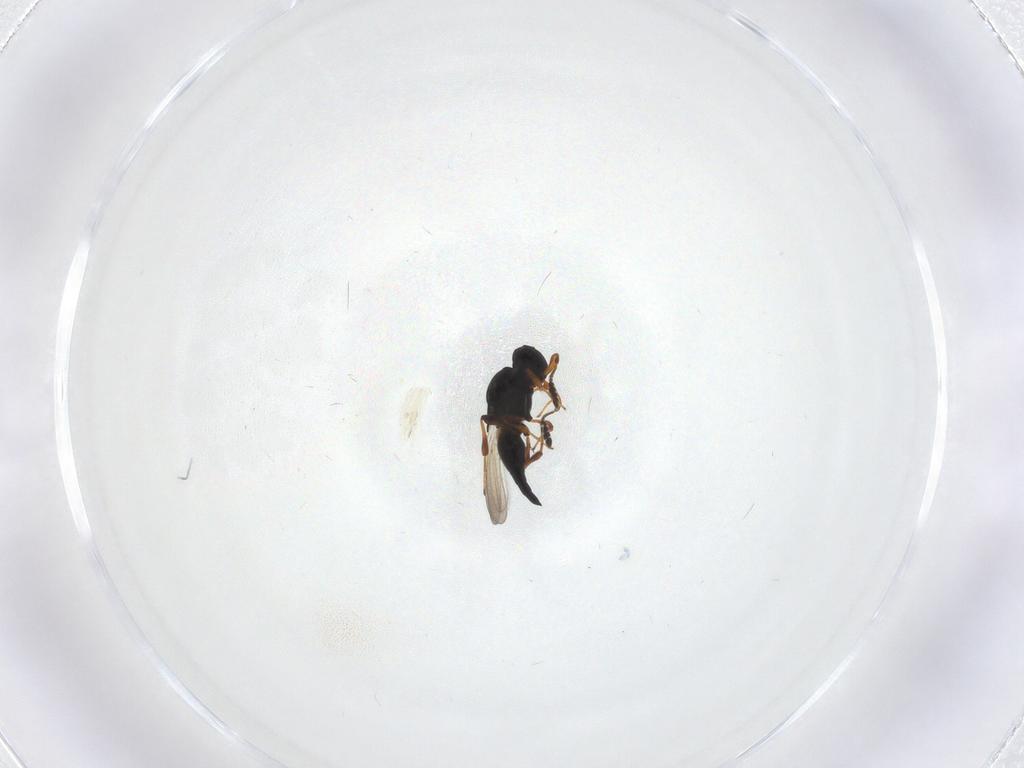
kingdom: Animalia
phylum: Arthropoda
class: Insecta
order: Hymenoptera
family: Platygastridae
